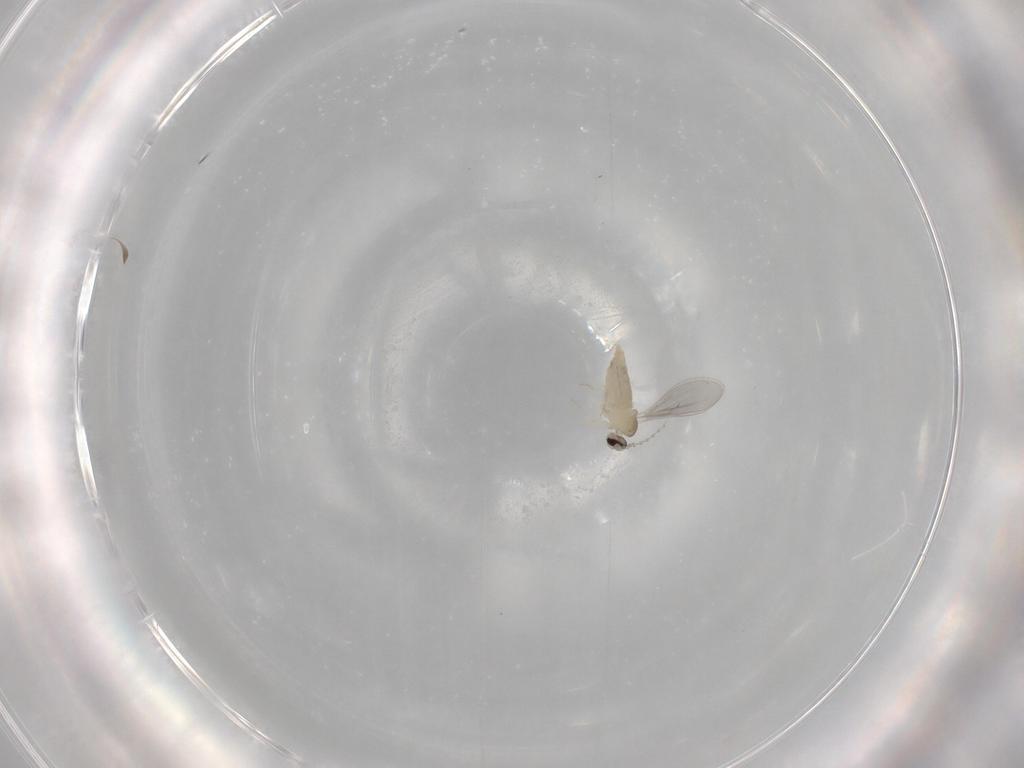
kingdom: Animalia
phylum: Arthropoda
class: Insecta
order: Diptera
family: Cecidomyiidae
